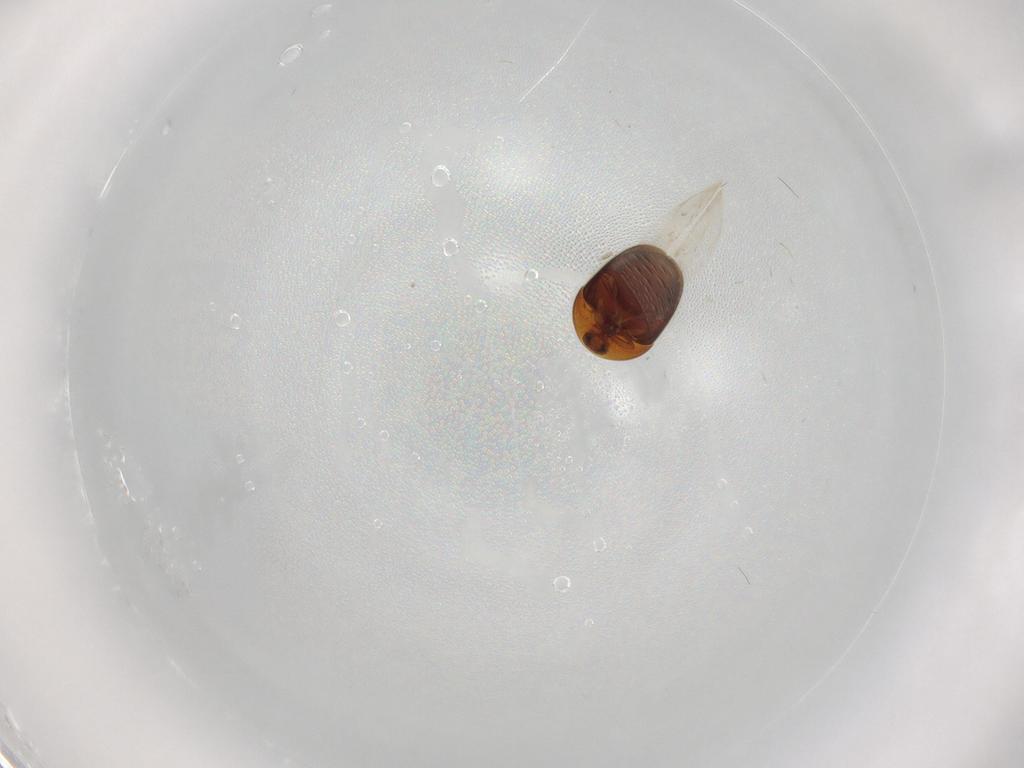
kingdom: Animalia
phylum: Arthropoda
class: Insecta
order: Coleoptera
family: Corylophidae
